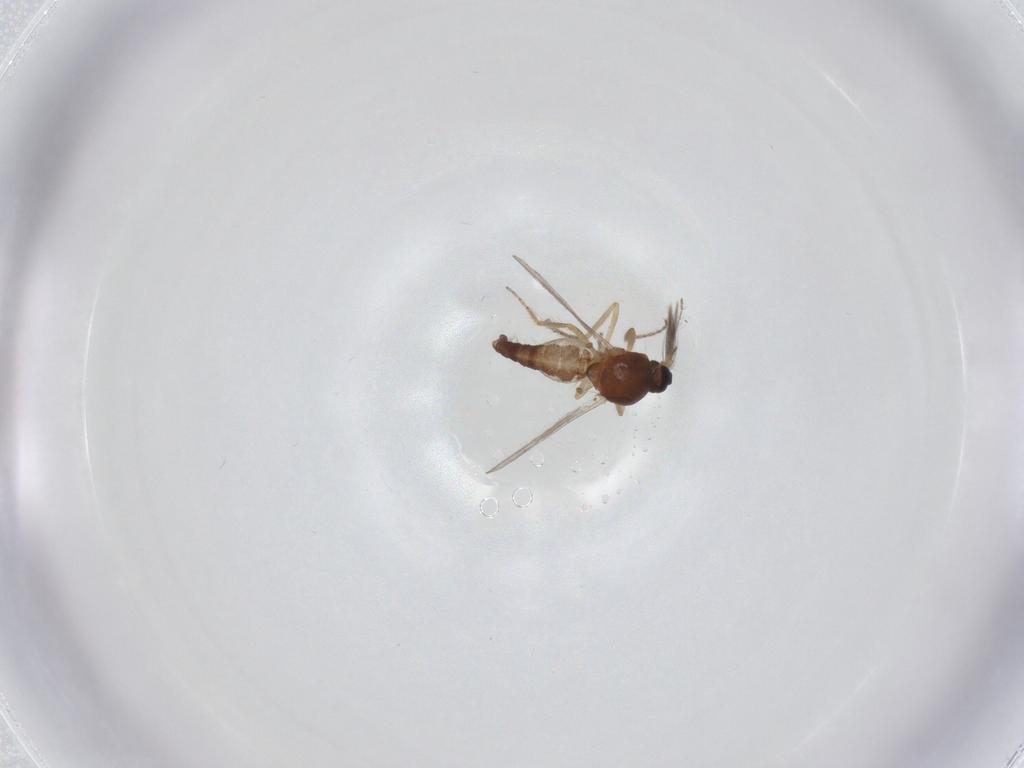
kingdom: Animalia
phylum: Arthropoda
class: Insecta
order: Diptera
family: Ceratopogonidae
